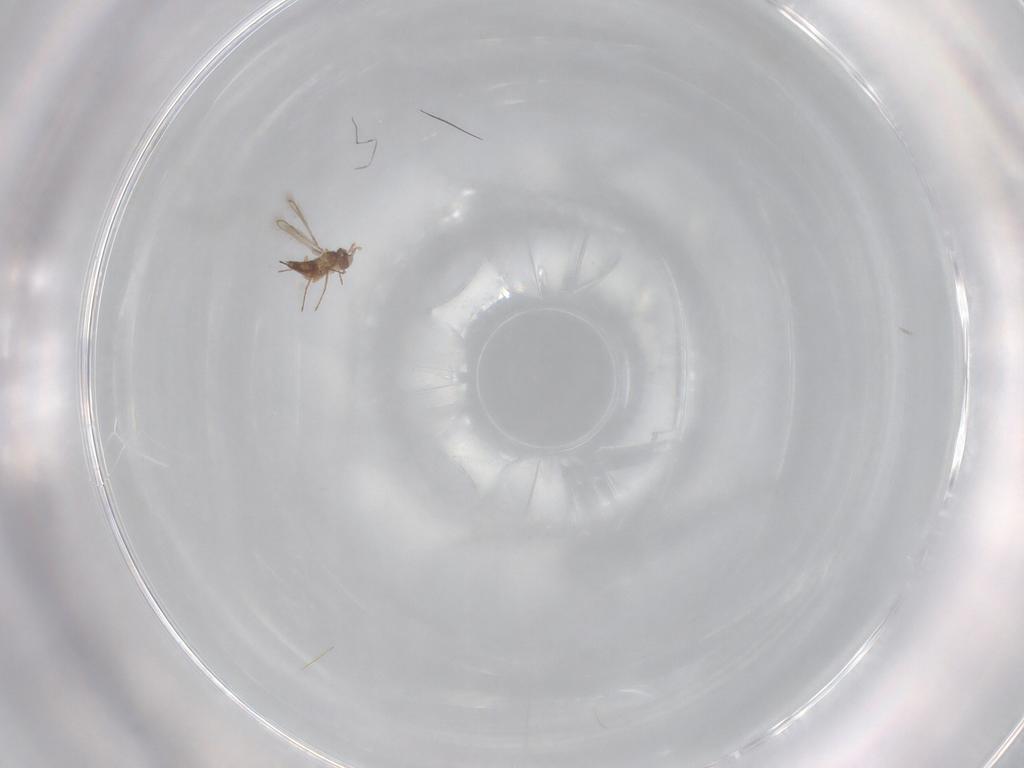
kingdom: Animalia
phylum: Arthropoda
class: Insecta
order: Hymenoptera
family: Mymaridae
